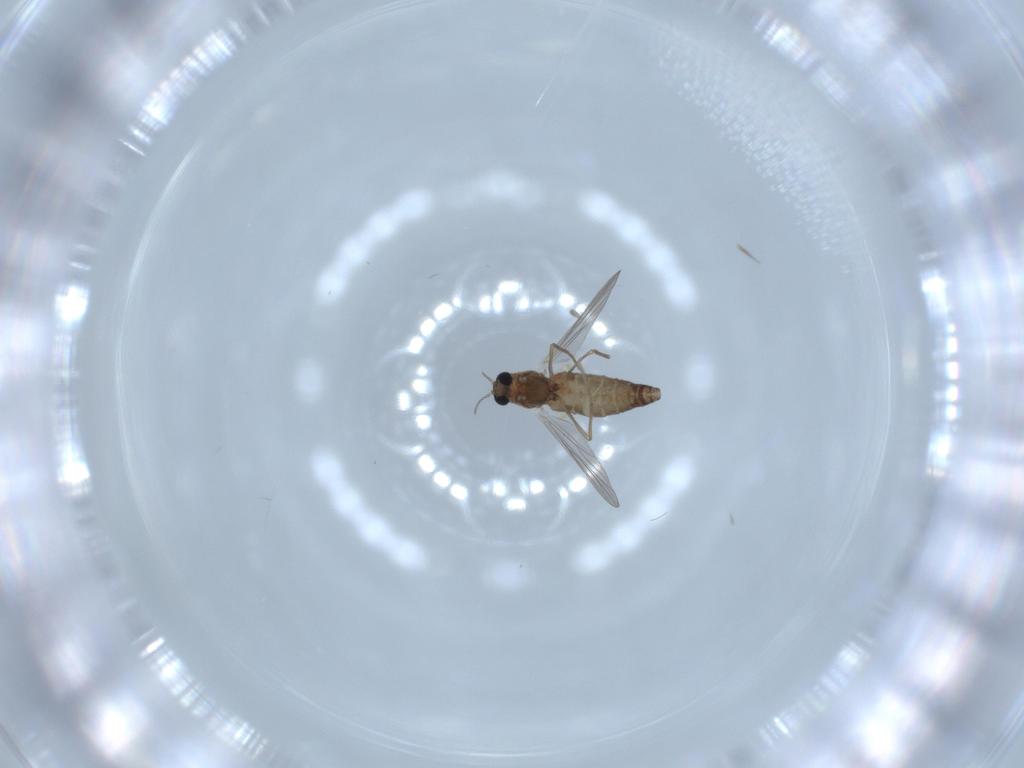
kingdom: Animalia
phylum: Arthropoda
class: Insecta
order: Diptera
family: Chironomidae
